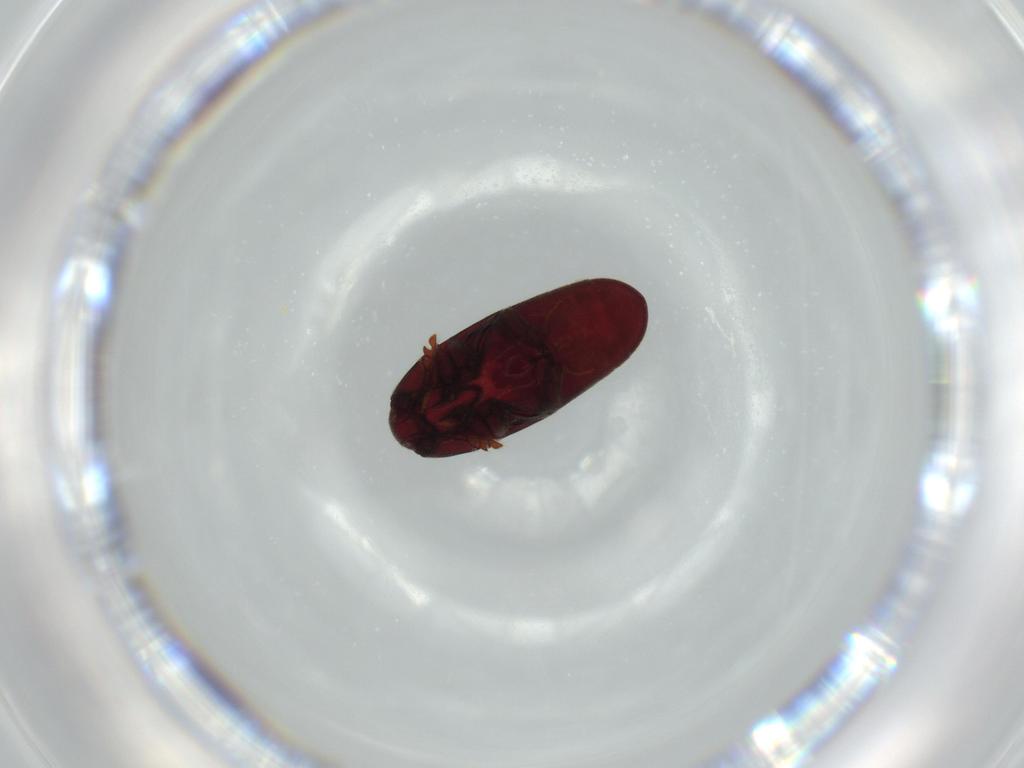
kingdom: Animalia
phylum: Arthropoda
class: Insecta
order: Coleoptera
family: Throscidae
